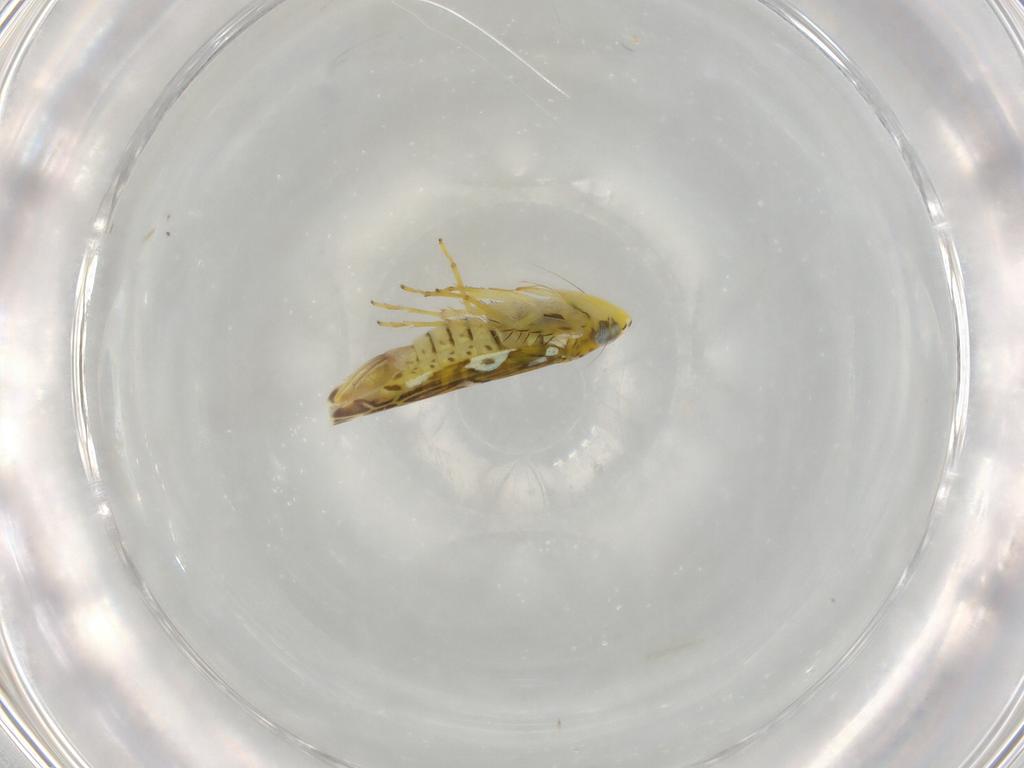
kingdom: Animalia
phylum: Arthropoda
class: Insecta
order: Hemiptera
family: Cicadellidae
